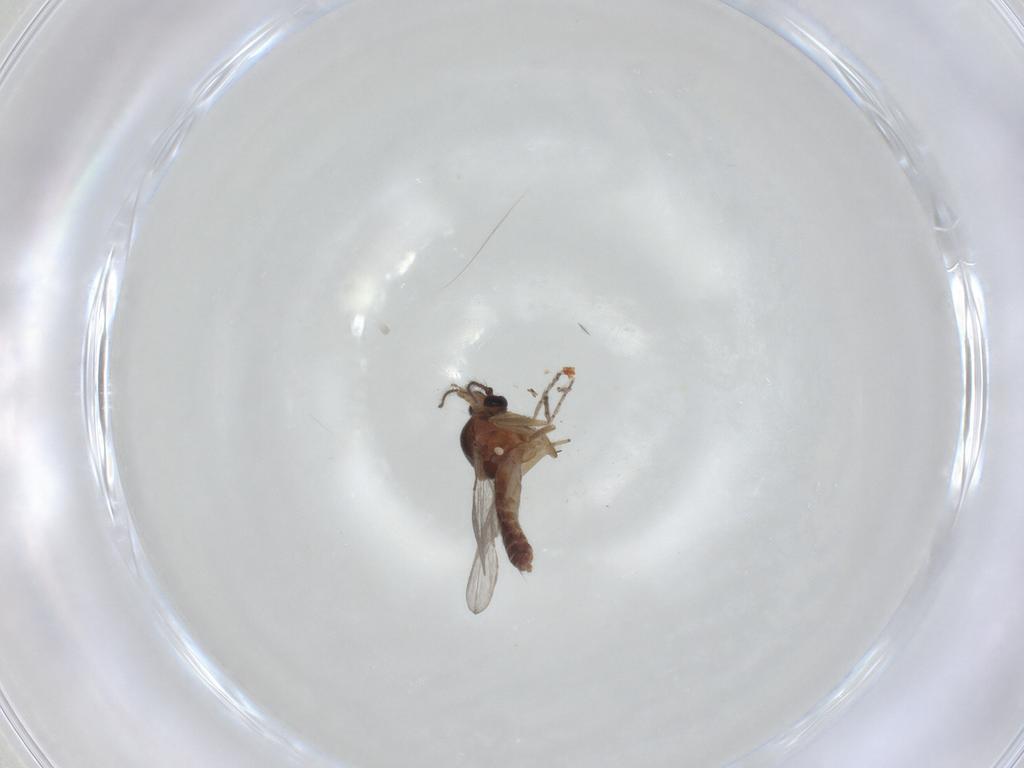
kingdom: Animalia
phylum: Arthropoda
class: Insecta
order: Diptera
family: Ceratopogonidae
